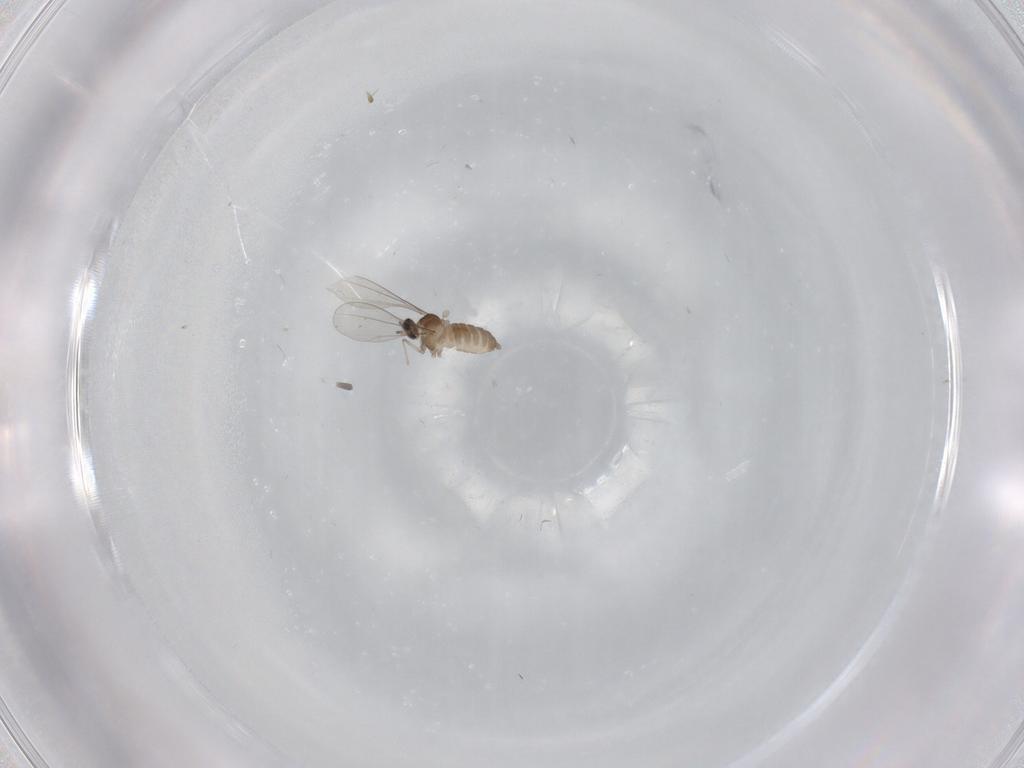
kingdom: Animalia
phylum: Arthropoda
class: Insecta
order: Diptera
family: Cecidomyiidae
